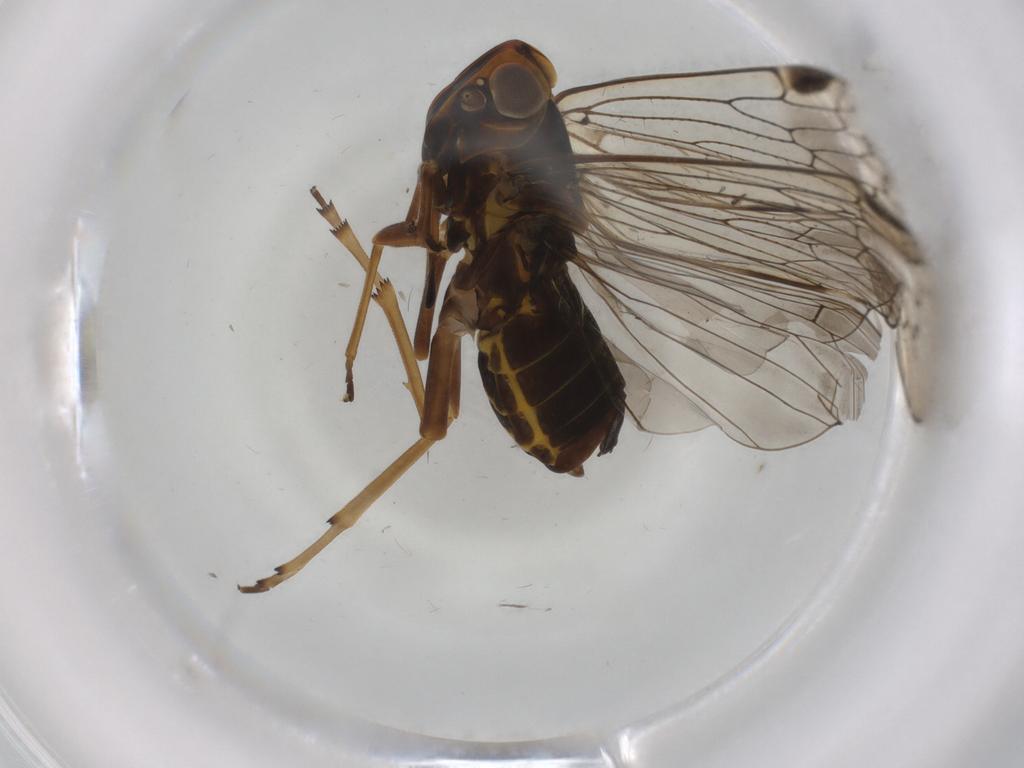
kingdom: Animalia
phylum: Arthropoda
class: Insecta
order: Hemiptera
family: Cixiidae
